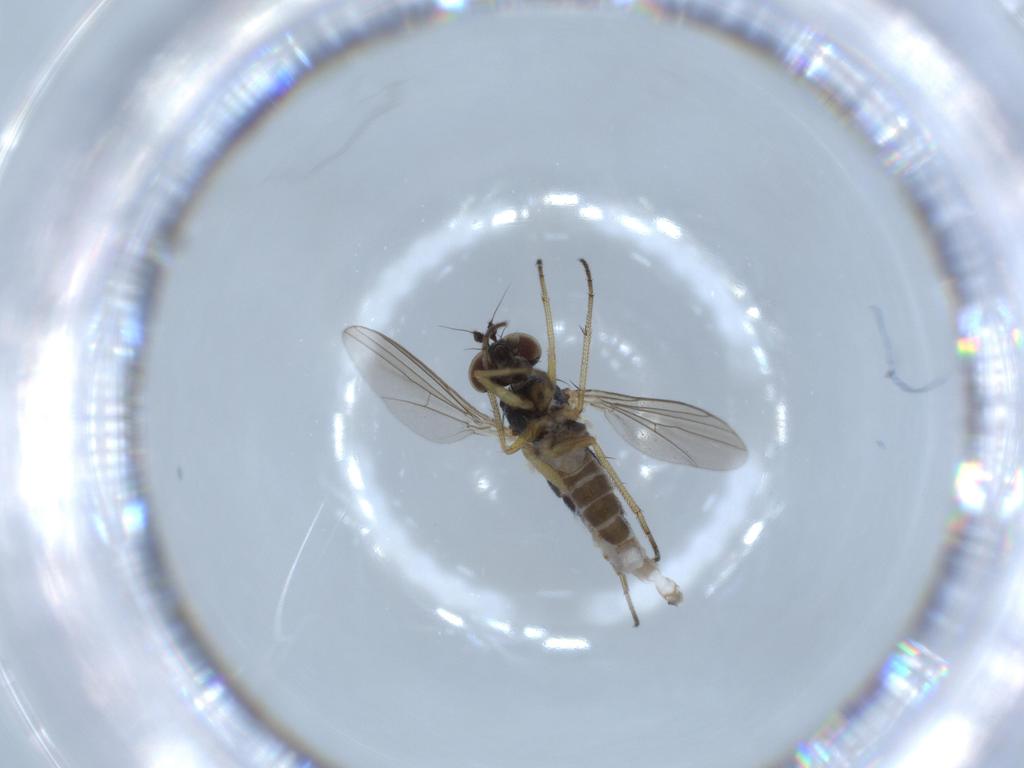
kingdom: Animalia
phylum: Arthropoda
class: Insecta
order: Diptera
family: Dolichopodidae
